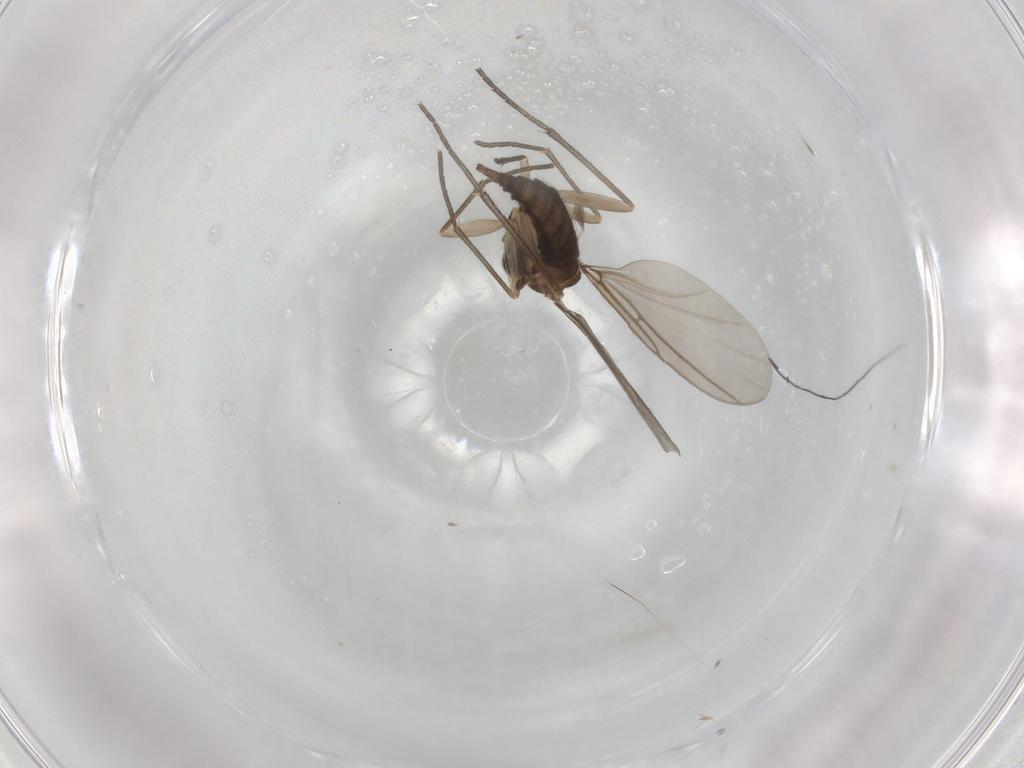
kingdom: Animalia
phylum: Arthropoda
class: Insecta
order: Diptera
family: Sciaridae
